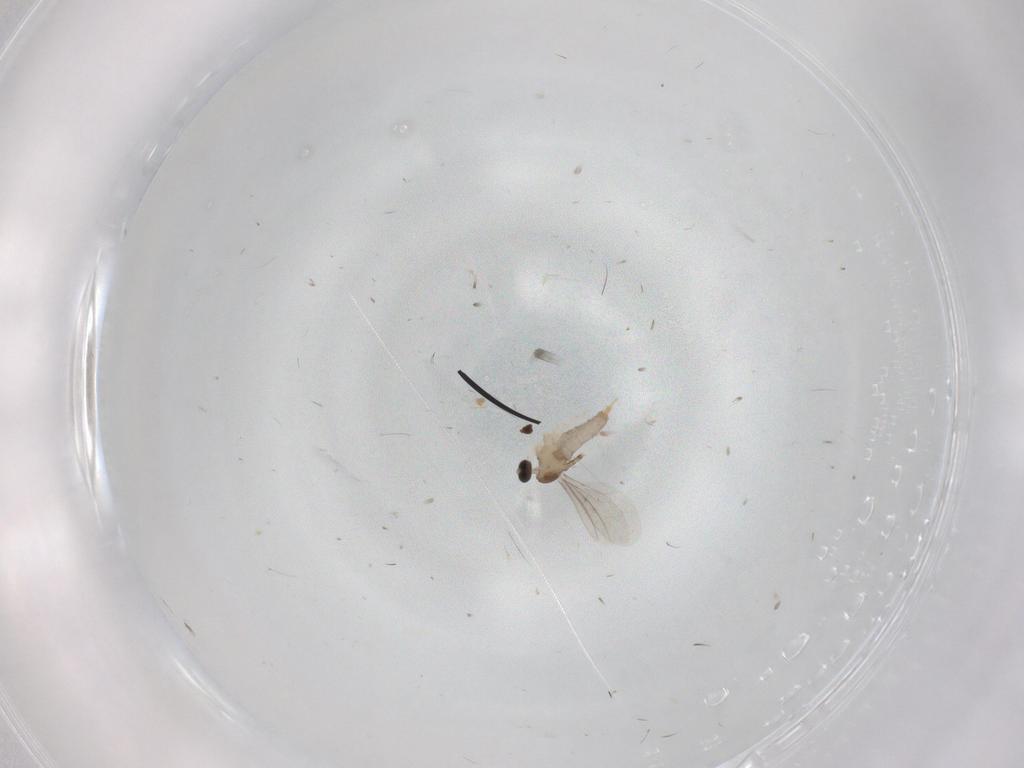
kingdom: Animalia
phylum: Arthropoda
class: Insecta
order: Diptera
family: Cecidomyiidae
